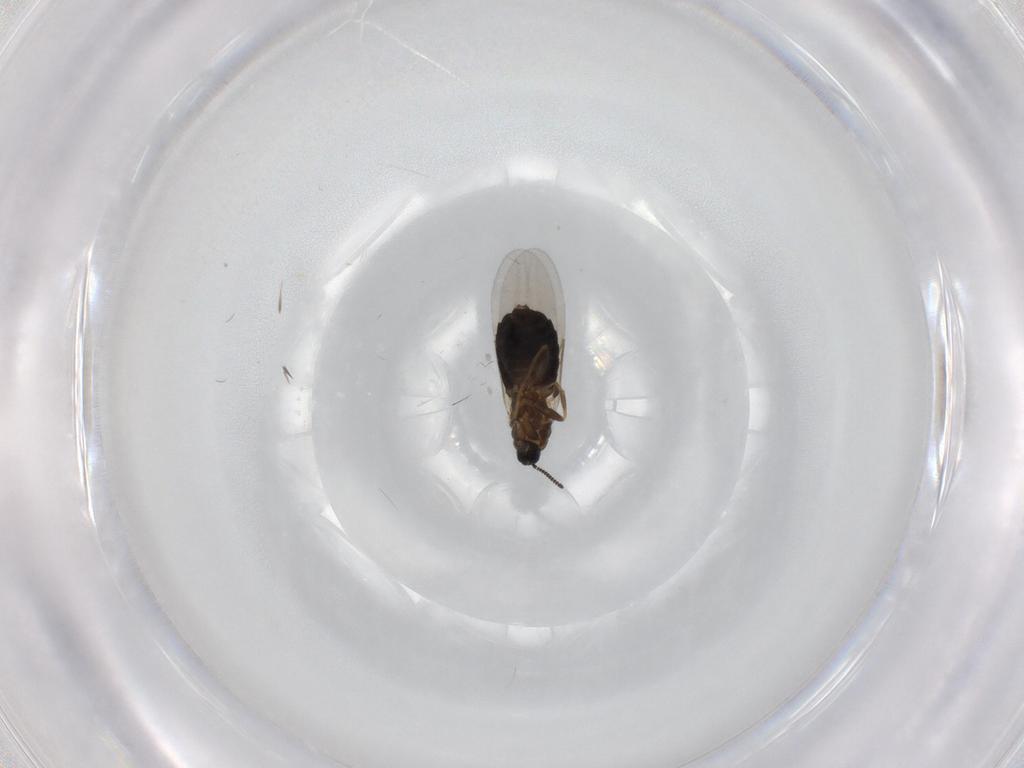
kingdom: Animalia
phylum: Arthropoda
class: Insecta
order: Diptera
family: Scatopsidae
